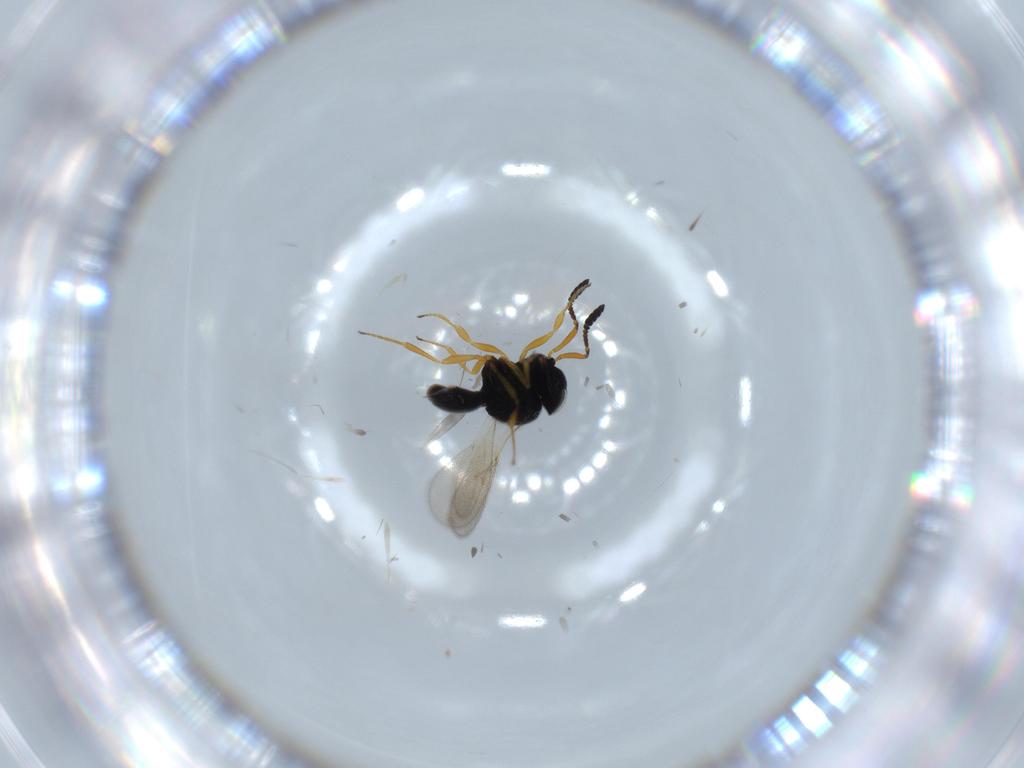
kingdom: Animalia
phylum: Arthropoda
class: Insecta
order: Hymenoptera
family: Scelionidae
